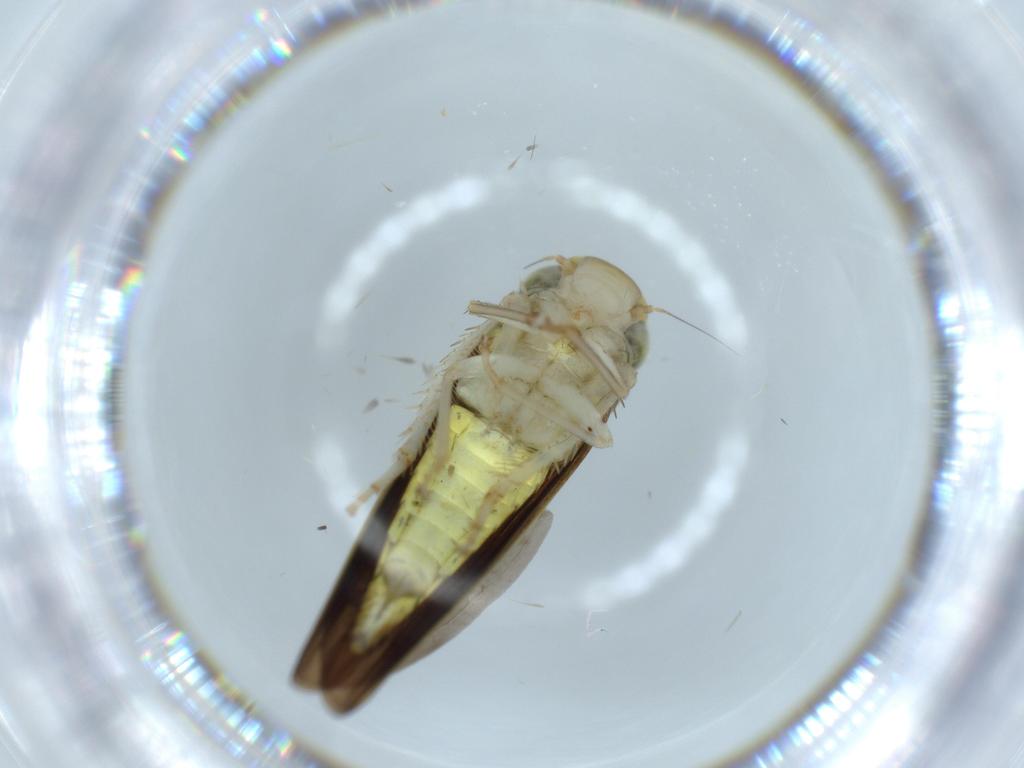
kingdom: Animalia
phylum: Arthropoda
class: Insecta
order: Hemiptera
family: Cicadellidae
